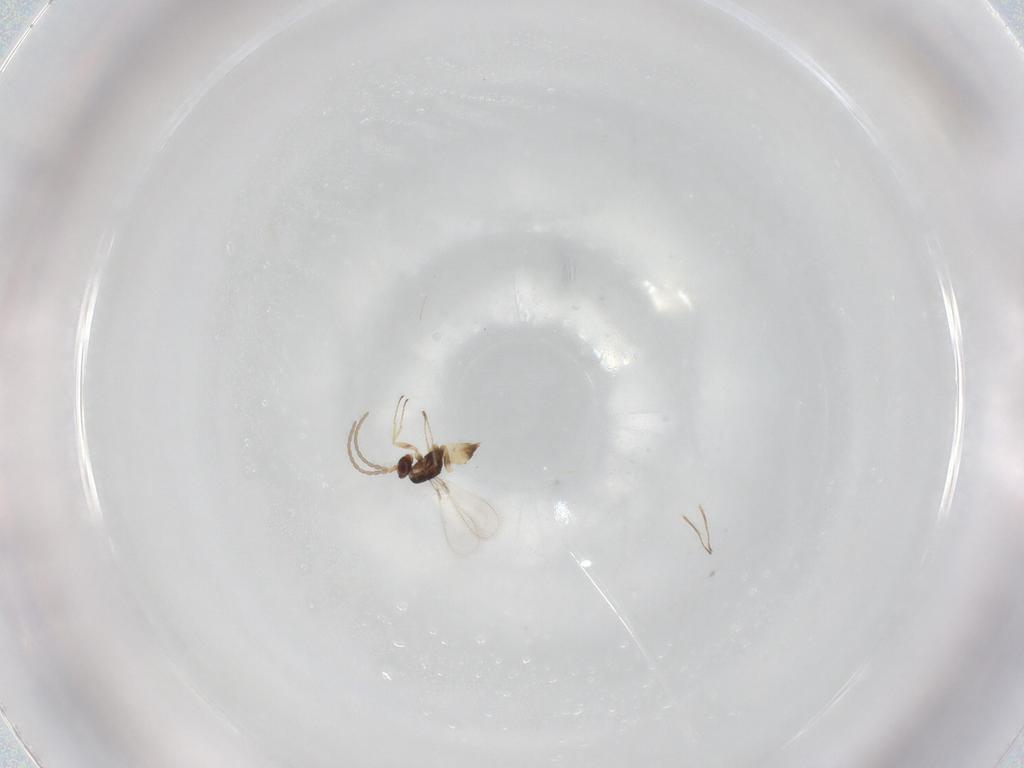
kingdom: Animalia
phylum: Arthropoda
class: Insecta
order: Hymenoptera
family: Mymaridae
